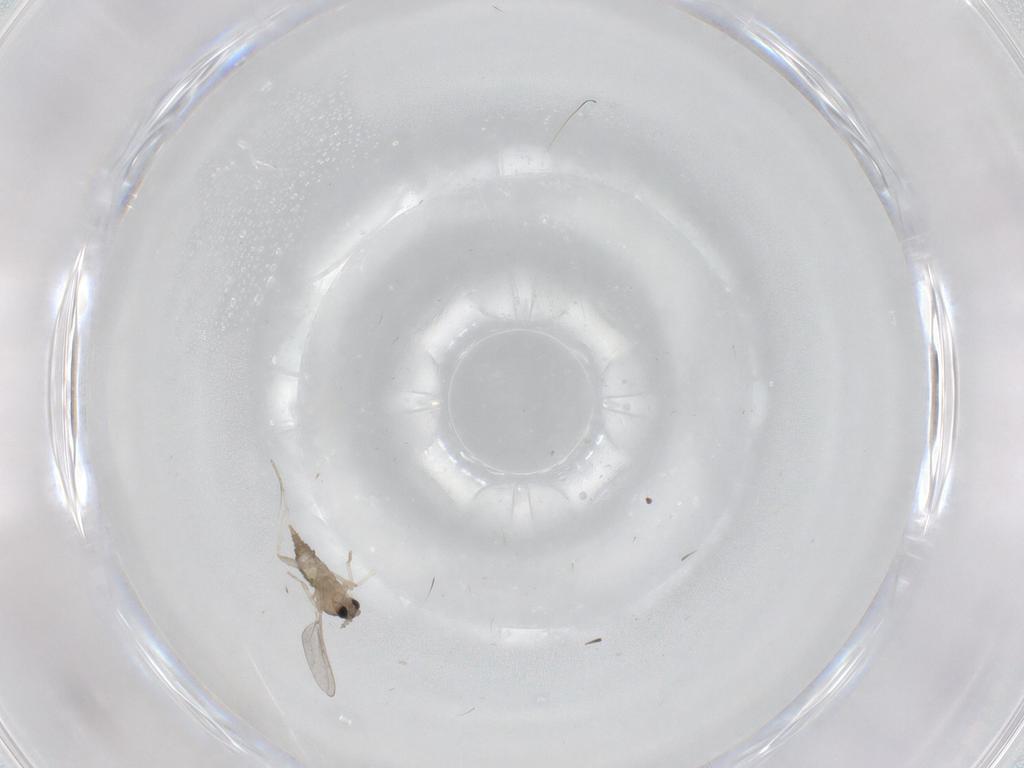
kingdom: Animalia
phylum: Arthropoda
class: Insecta
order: Diptera
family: Cecidomyiidae
